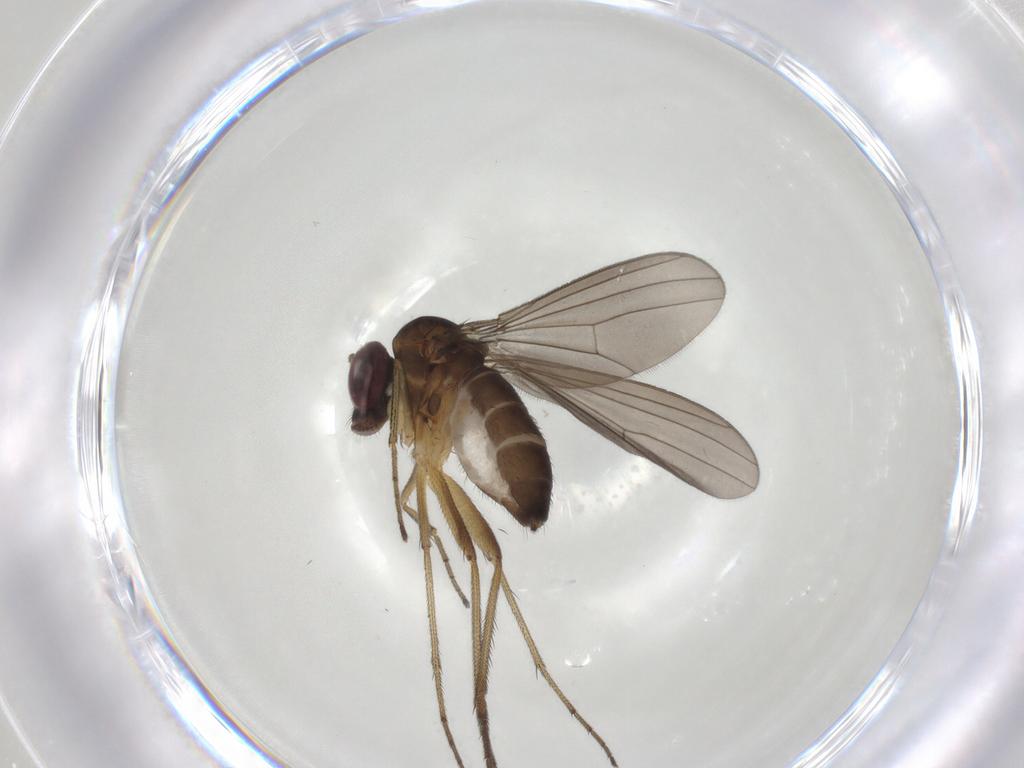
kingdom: Animalia
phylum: Arthropoda
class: Insecta
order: Diptera
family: Dolichopodidae
